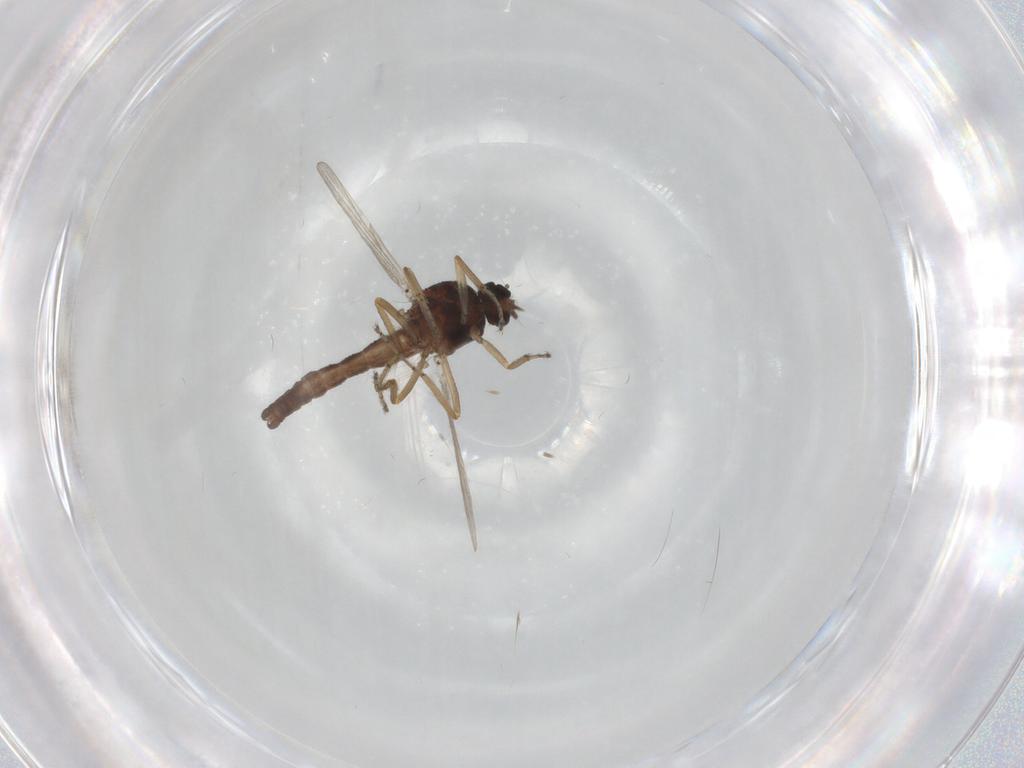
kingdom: Animalia
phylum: Arthropoda
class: Insecta
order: Diptera
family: Ceratopogonidae
